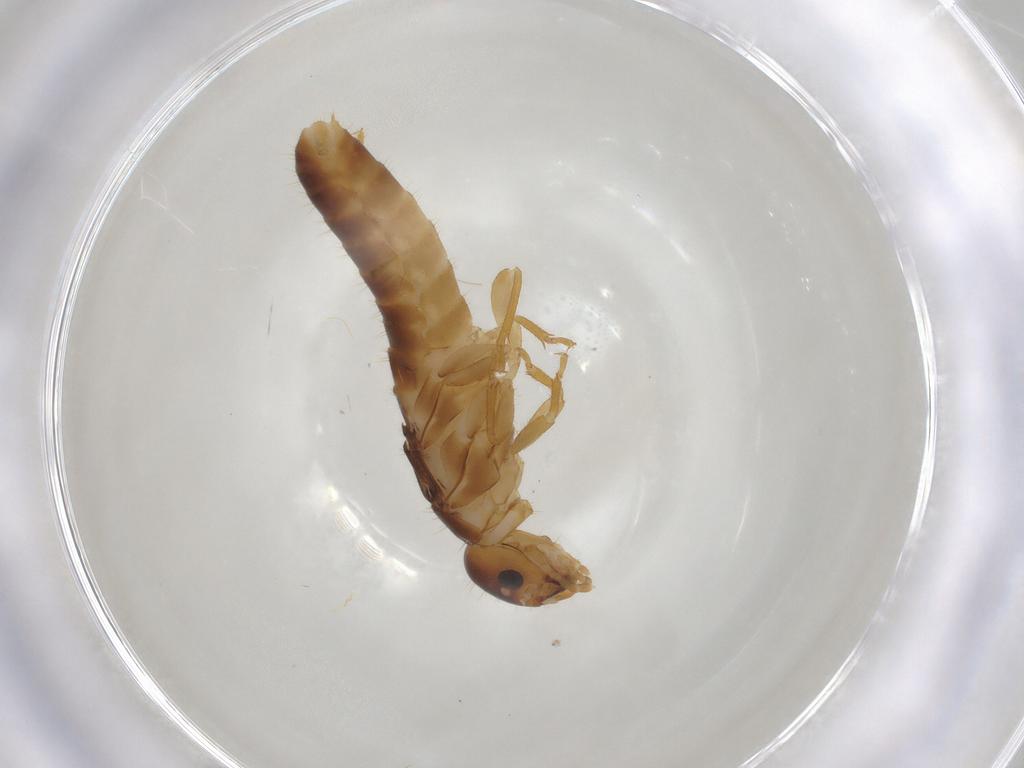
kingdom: Animalia
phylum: Arthropoda
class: Insecta
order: Blattodea
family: Kalotermitidae
